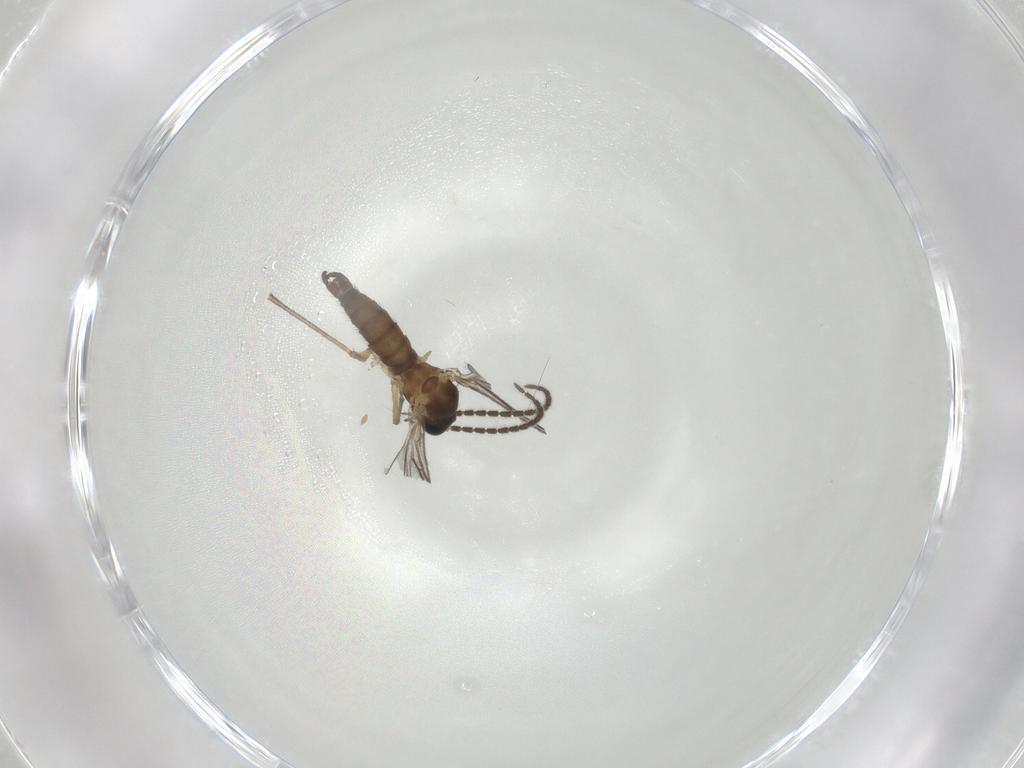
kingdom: Animalia
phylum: Arthropoda
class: Insecta
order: Diptera
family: Sciaridae
